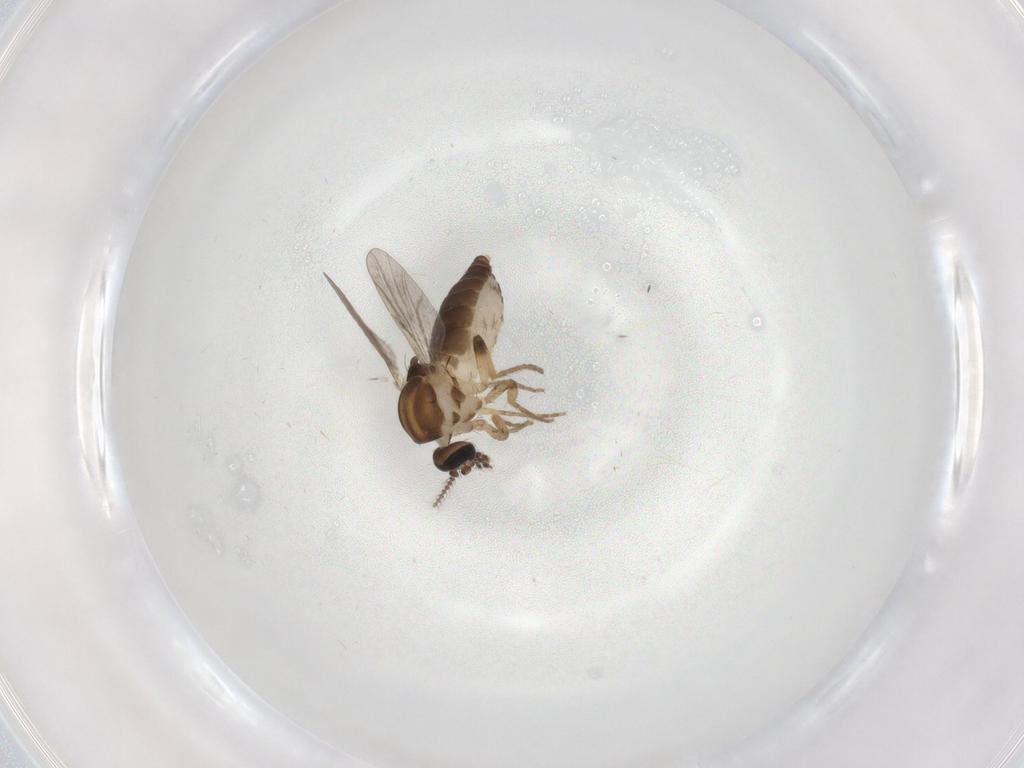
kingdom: Animalia
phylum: Arthropoda
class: Insecta
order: Diptera
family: Ceratopogonidae
